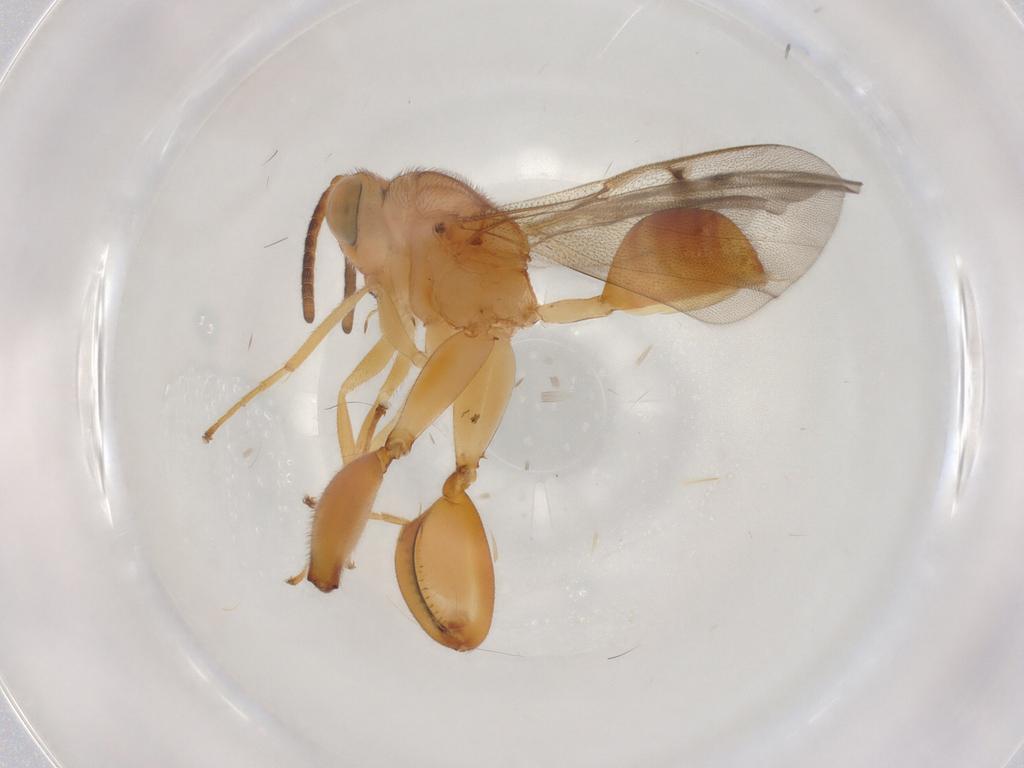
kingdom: Animalia
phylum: Arthropoda
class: Insecta
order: Hymenoptera
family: Chalcididae
